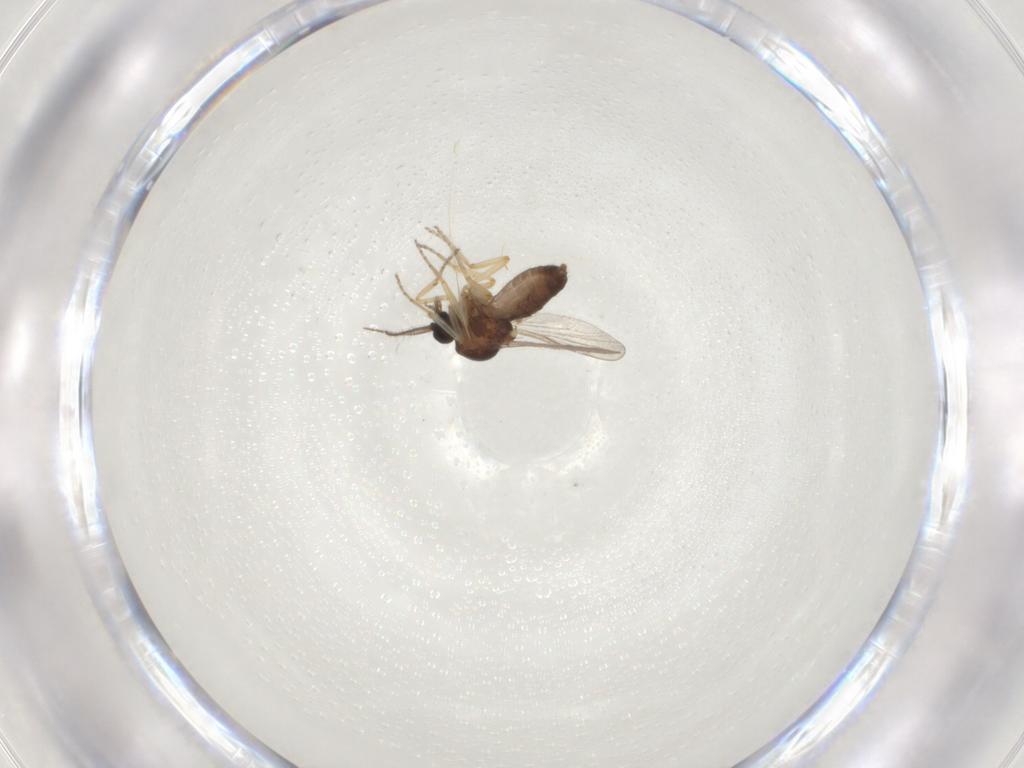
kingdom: Animalia
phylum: Arthropoda
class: Insecta
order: Diptera
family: Ceratopogonidae
